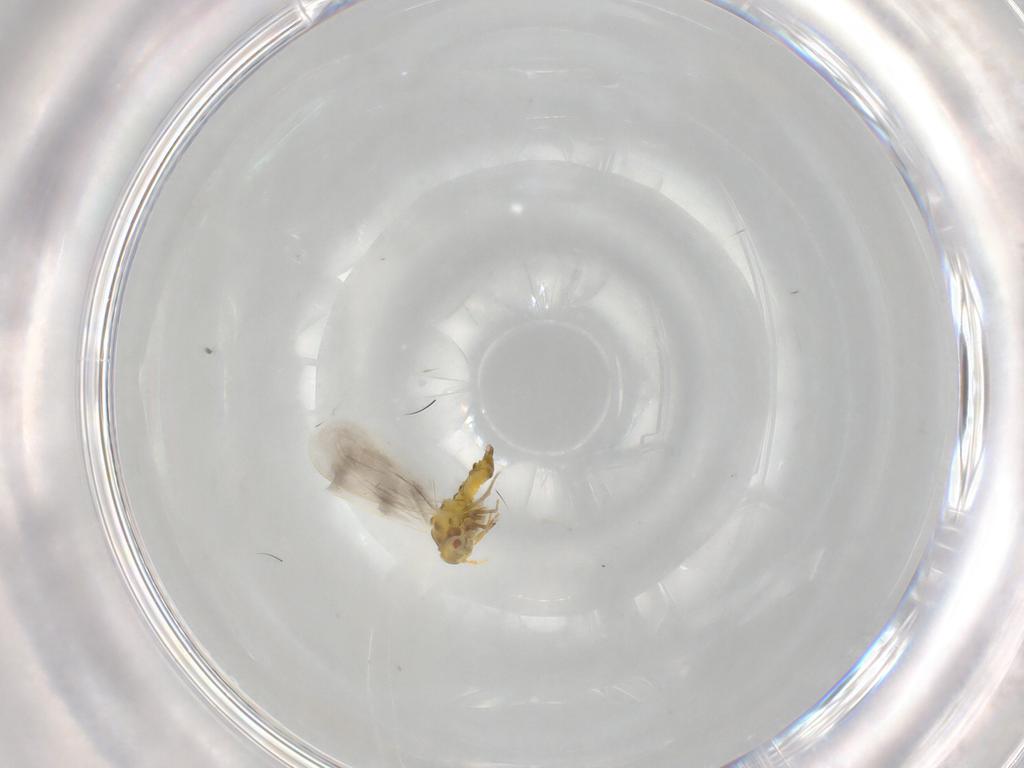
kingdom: Animalia
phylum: Arthropoda
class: Insecta
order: Hemiptera
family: Aleyrodidae
